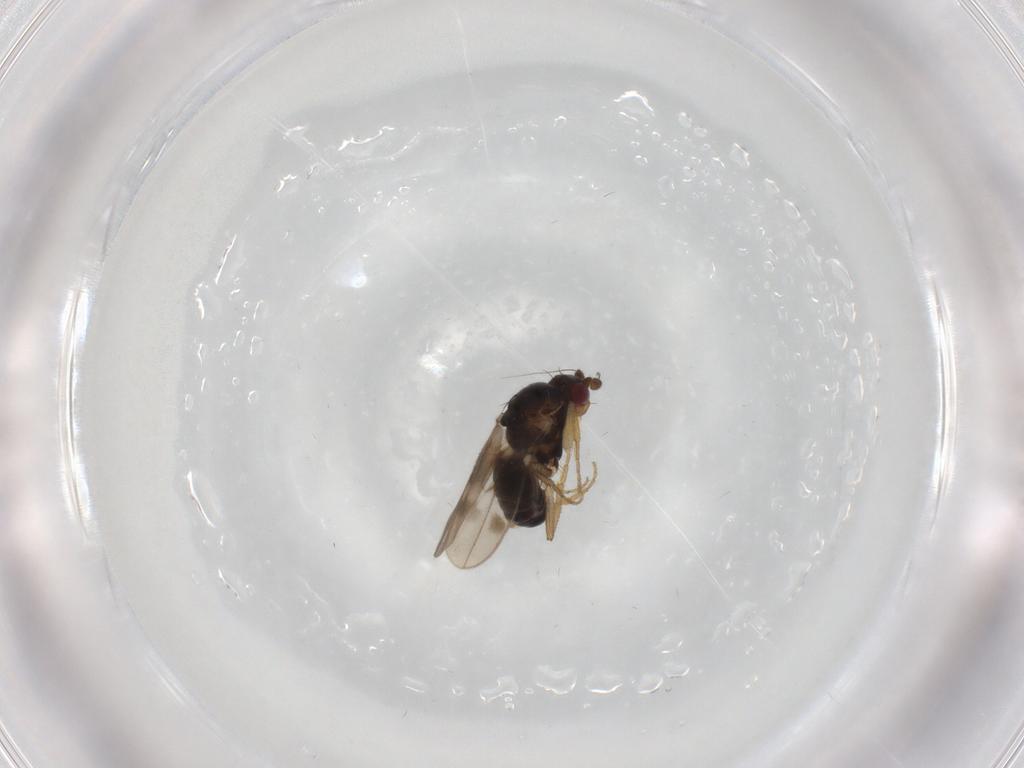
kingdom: Animalia
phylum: Arthropoda
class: Insecta
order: Diptera
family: Sphaeroceridae
